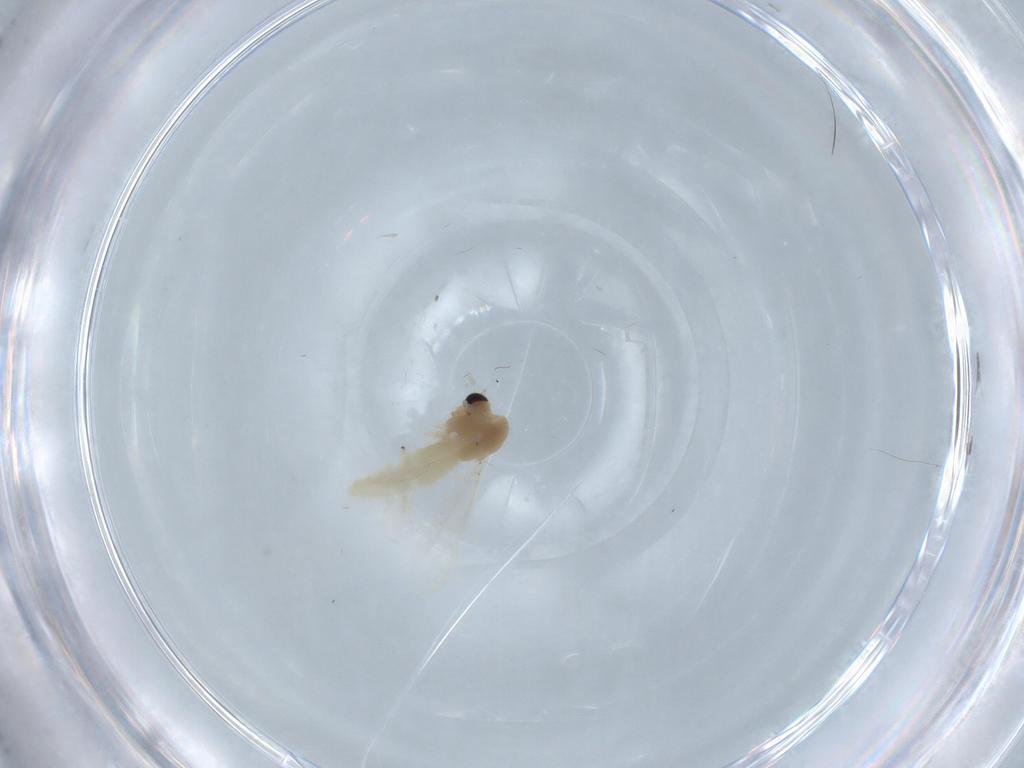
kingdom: Animalia
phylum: Arthropoda
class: Insecta
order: Diptera
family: Chironomidae
